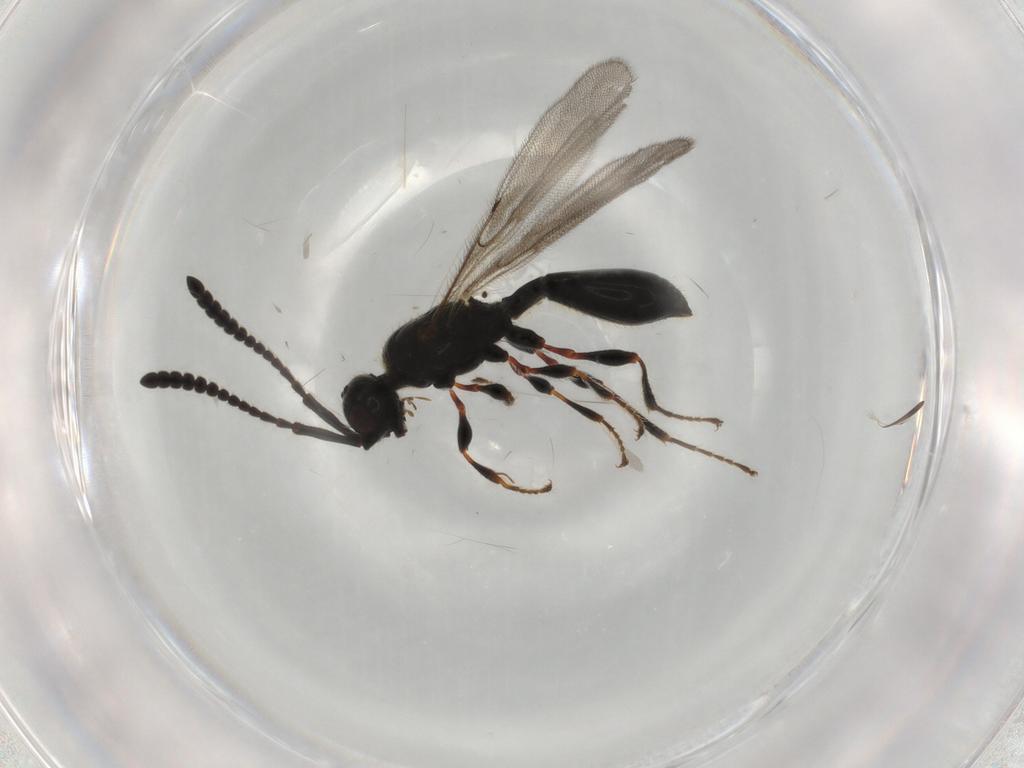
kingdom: Animalia
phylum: Arthropoda
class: Insecta
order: Hymenoptera
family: Diapriidae
